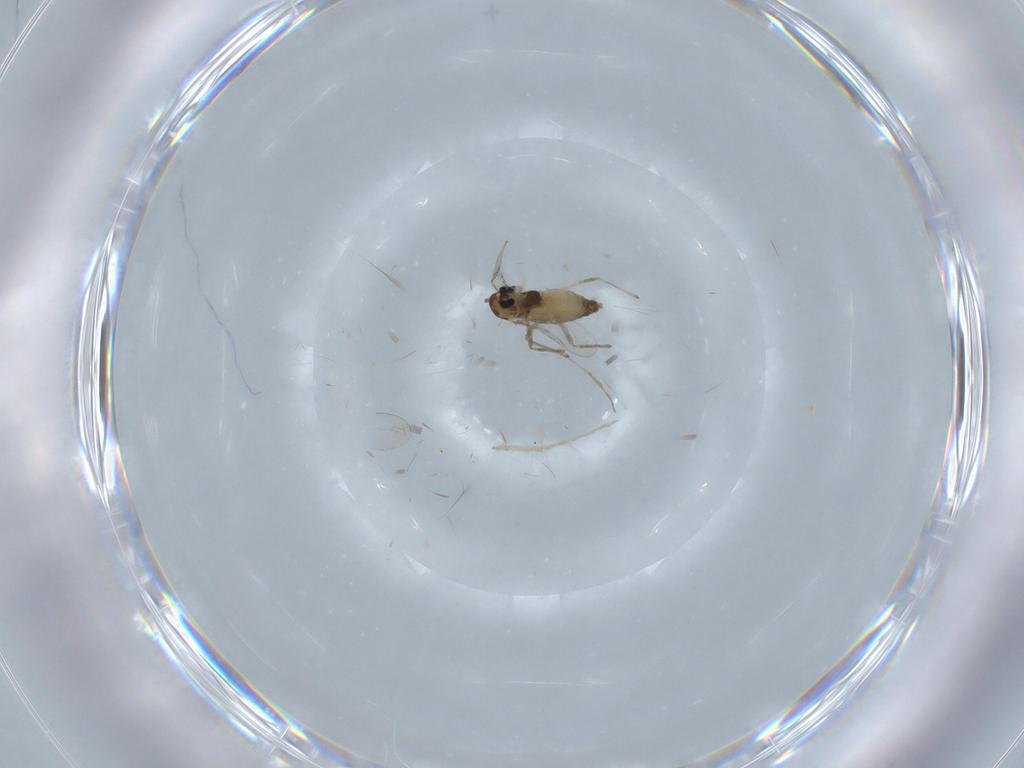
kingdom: Animalia
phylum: Arthropoda
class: Insecta
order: Diptera
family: Chironomidae
